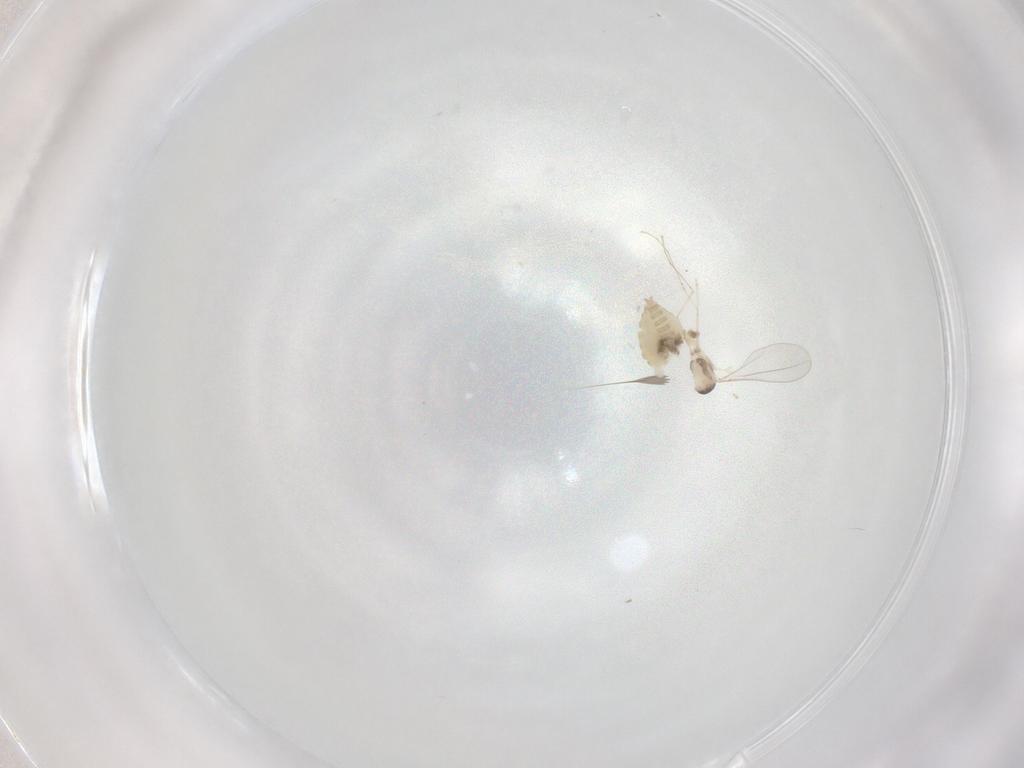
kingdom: Animalia
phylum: Arthropoda
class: Insecta
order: Diptera
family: Cecidomyiidae
